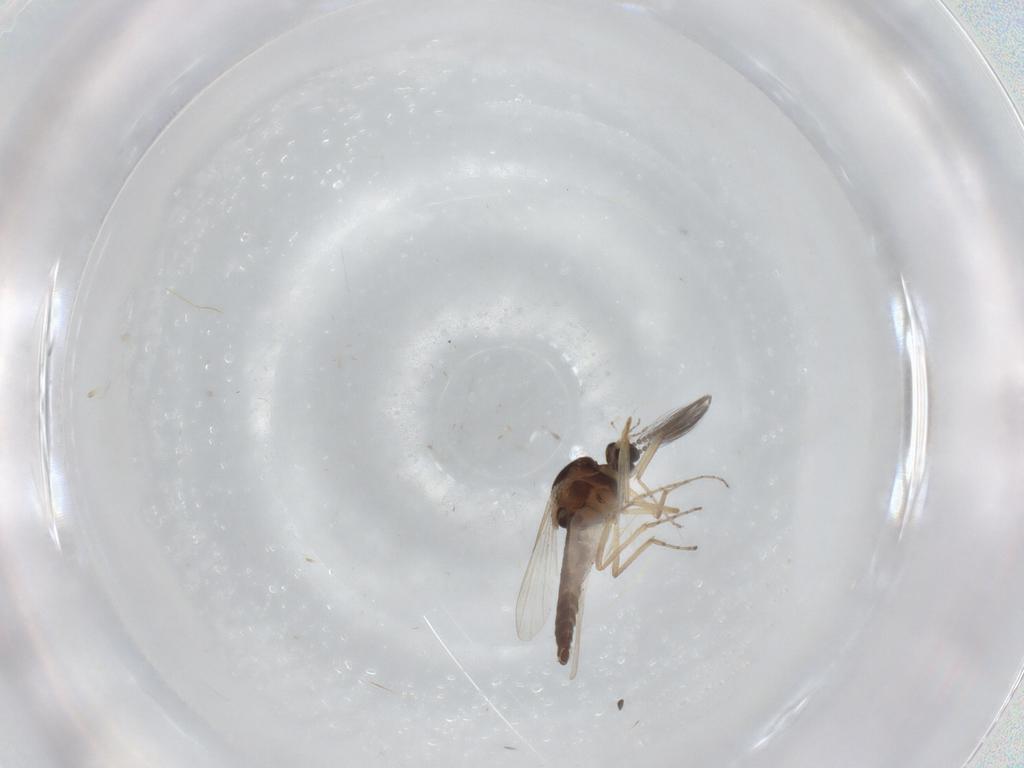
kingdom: Animalia
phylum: Arthropoda
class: Insecta
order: Diptera
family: Ceratopogonidae
